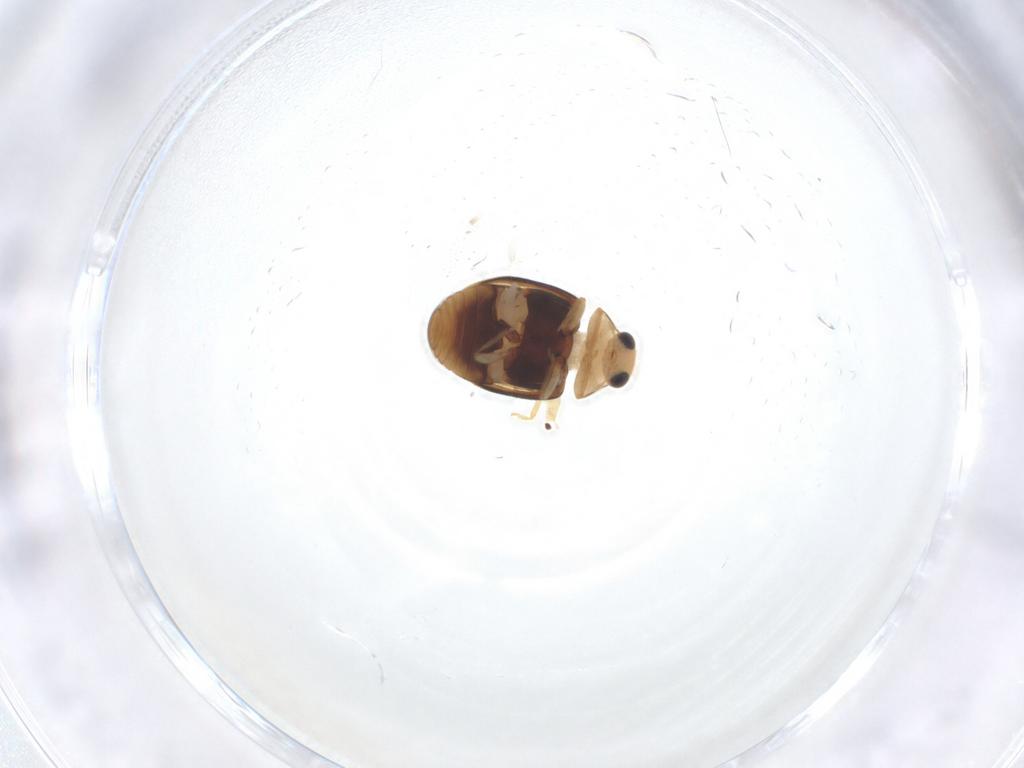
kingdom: Animalia
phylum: Arthropoda
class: Insecta
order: Coleoptera
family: Coccinellidae
